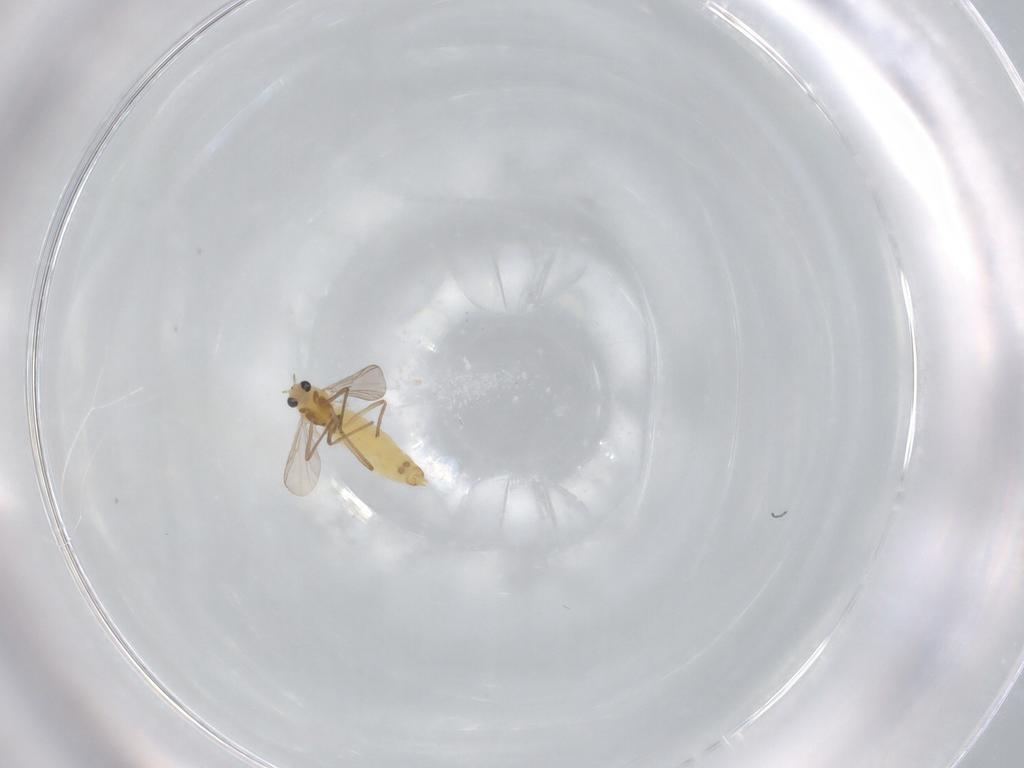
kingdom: Animalia
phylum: Arthropoda
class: Insecta
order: Diptera
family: Chironomidae
